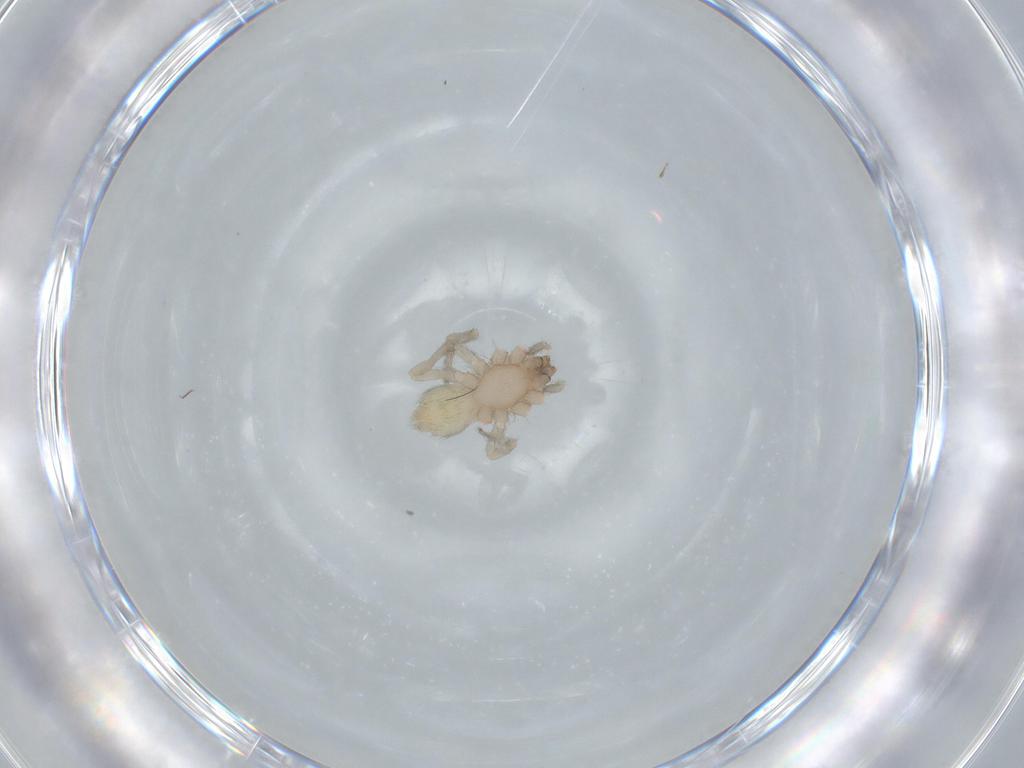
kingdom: Animalia
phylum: Arthropoda
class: Arachnida
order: Araneae
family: Gnaphosidae
